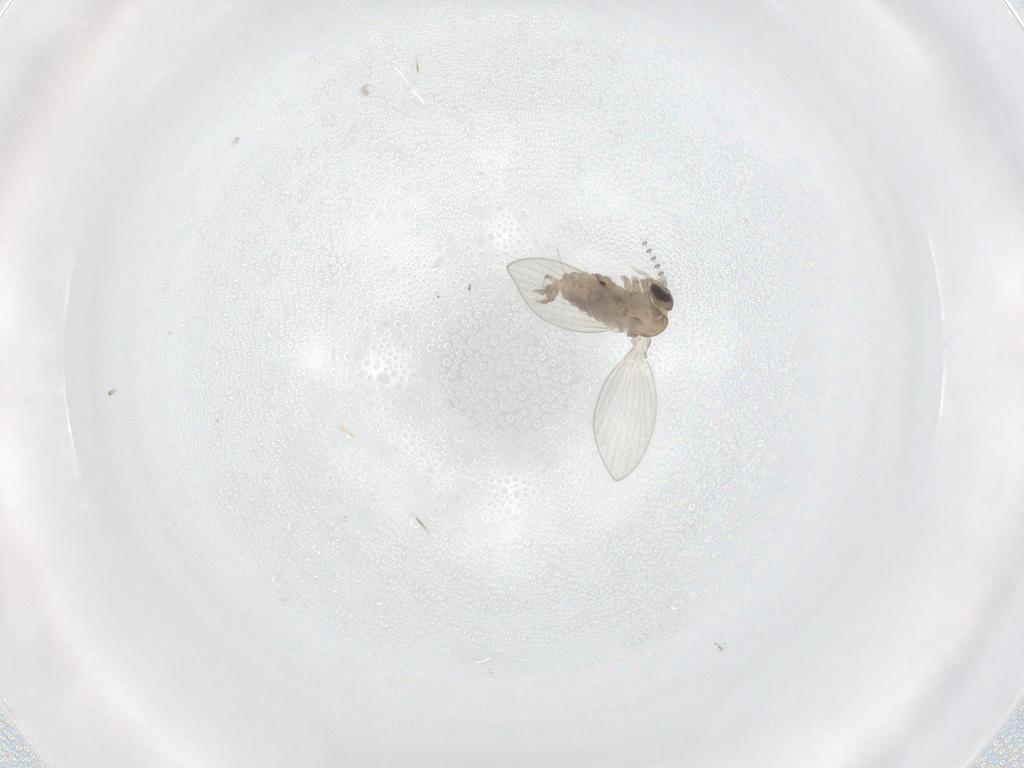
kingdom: Animalia
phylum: Arthropoda
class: Insecta
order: Diptera
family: Psychodidae
